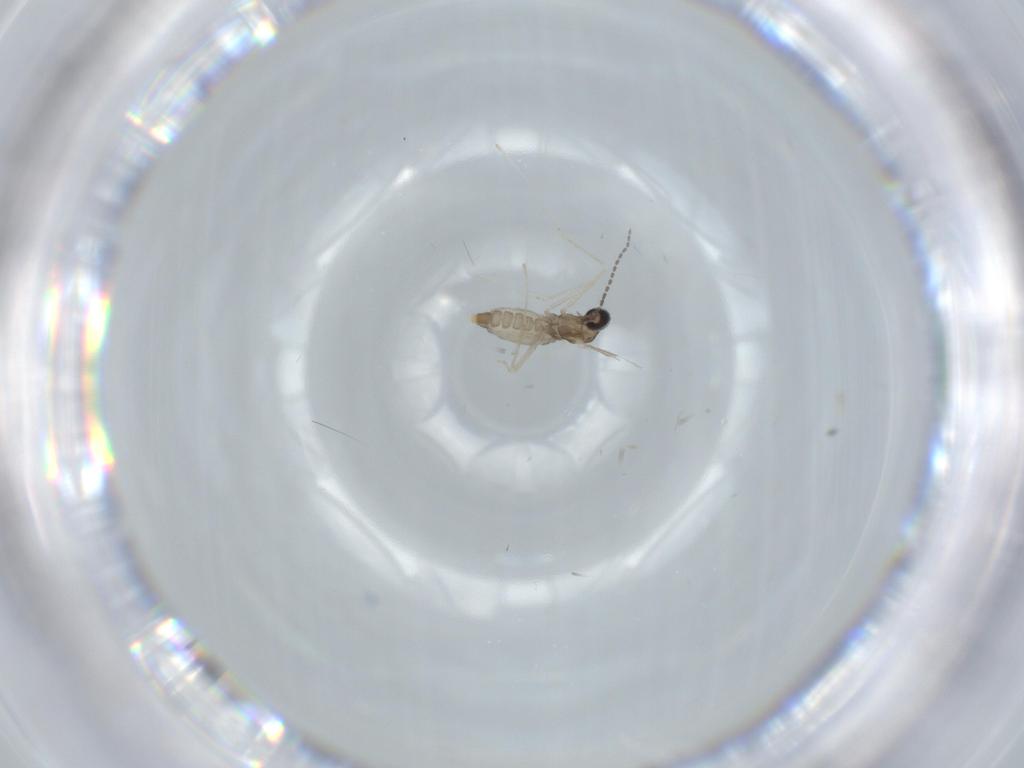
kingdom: Animalia
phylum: Arthropoda
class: Insecta
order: Diptera
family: Cecidomyiidae
